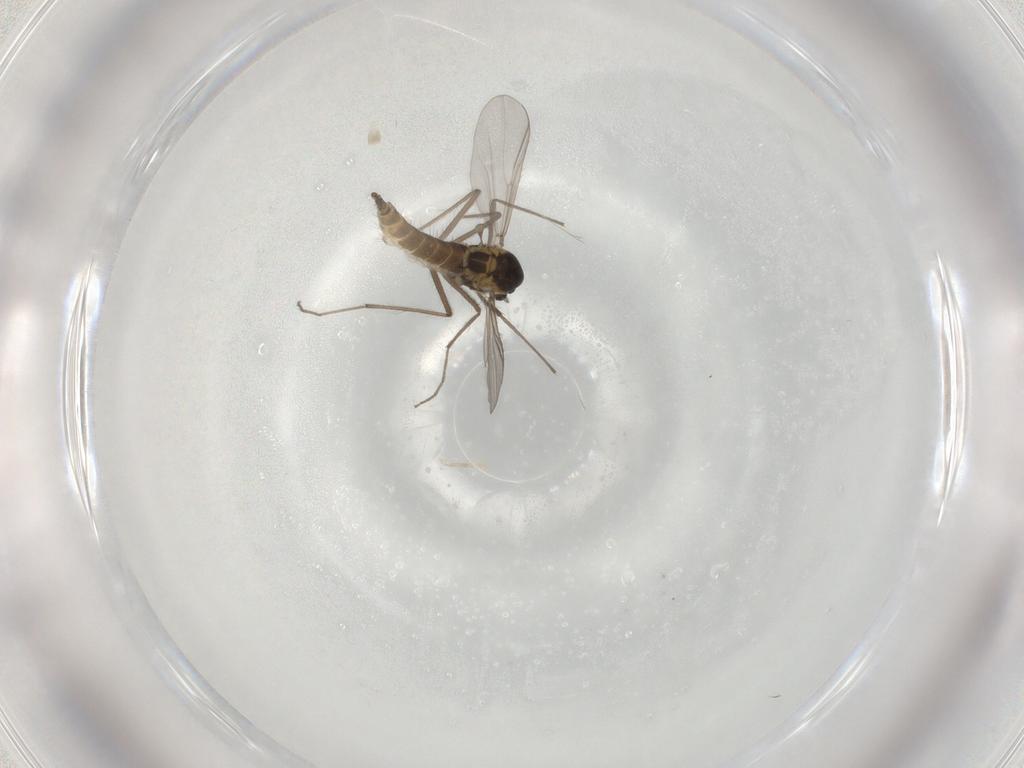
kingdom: Animalia
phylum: Arthropoda
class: Insecta
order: Diptera
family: Chironomidae
